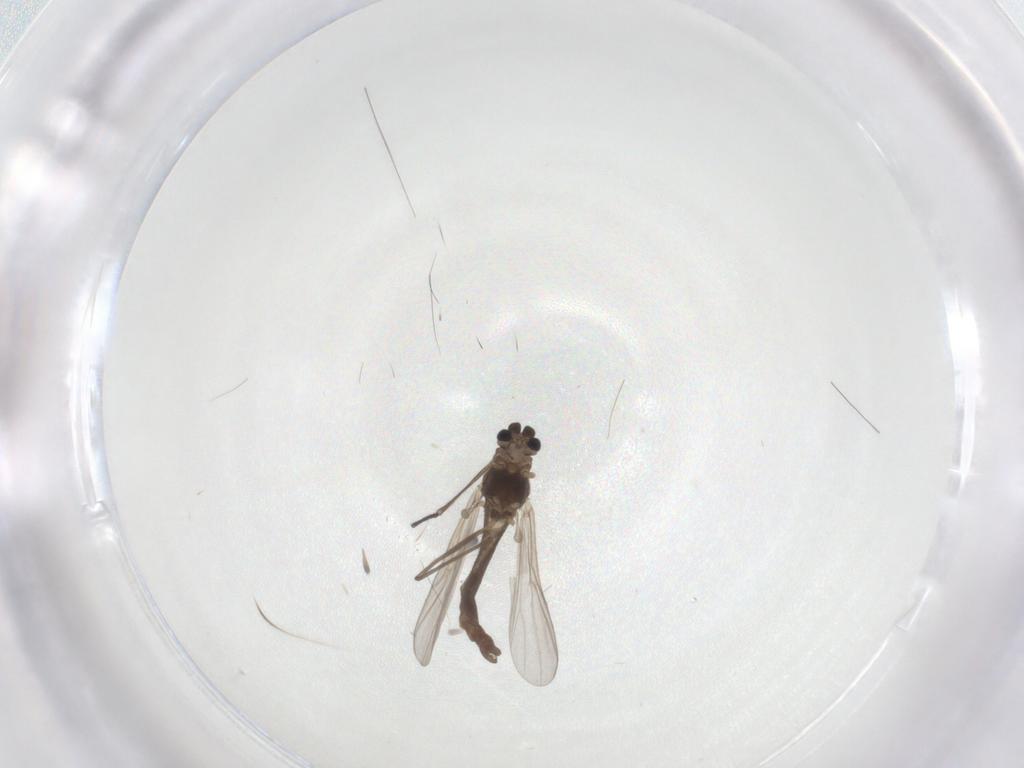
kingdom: Animalia
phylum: Arthropoda
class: Insecta
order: Diptera
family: Chironomidae
